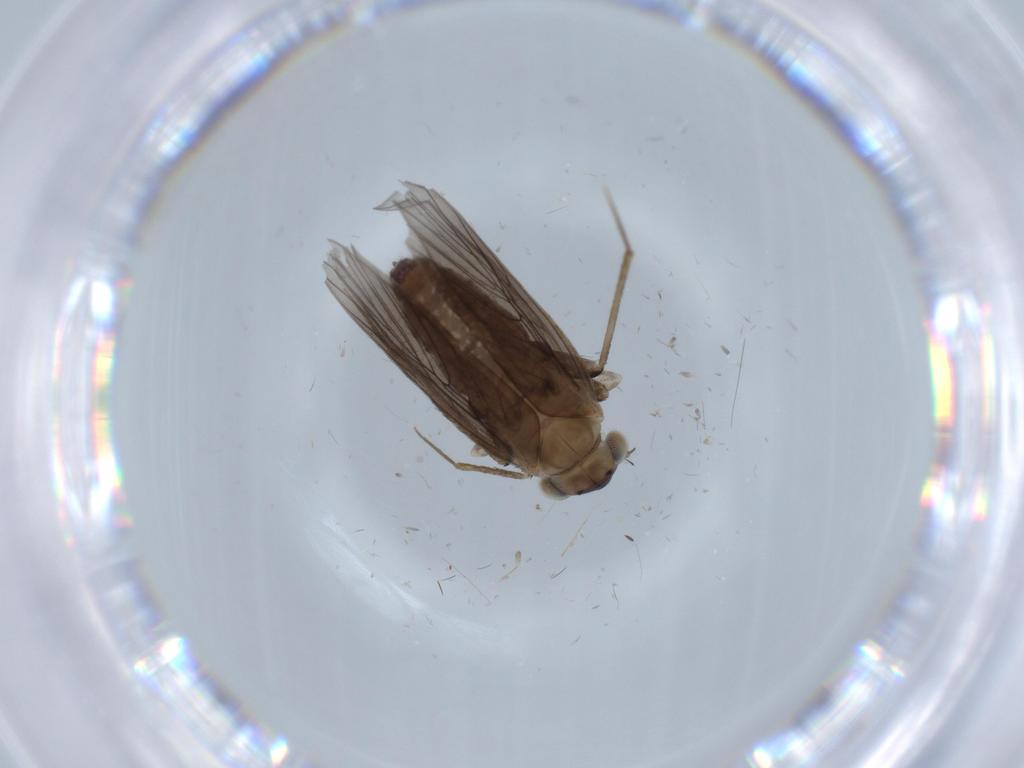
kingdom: Animalia
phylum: Arthropoda
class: Insecta
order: Psocodea
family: Lepidopsocidae
